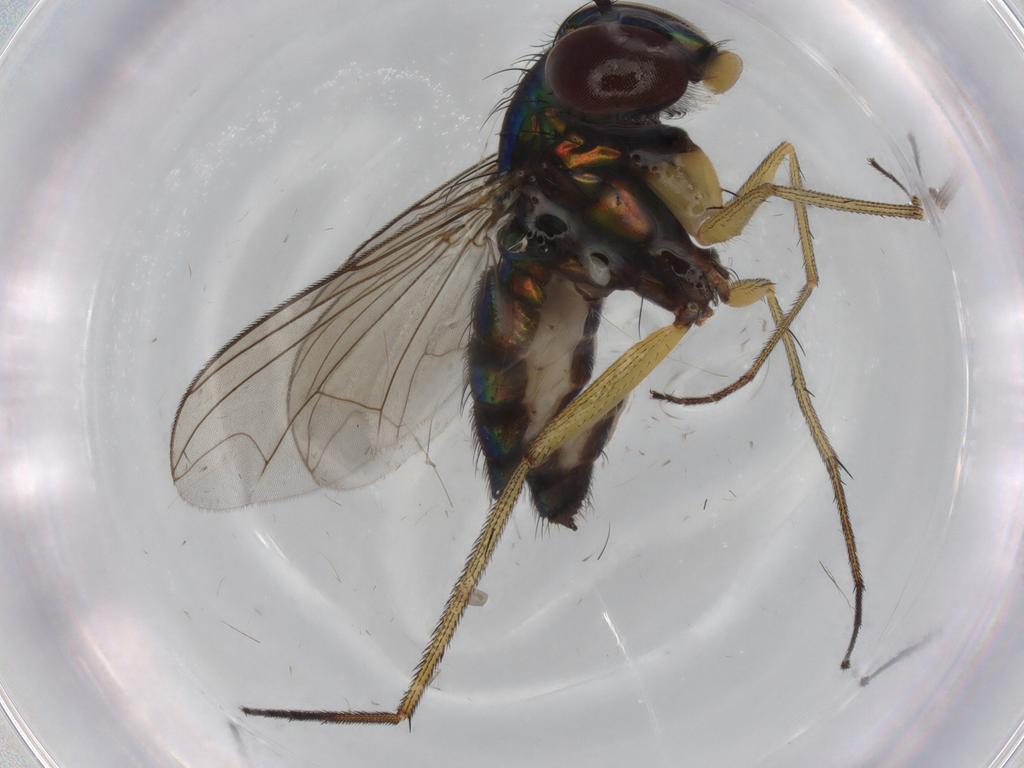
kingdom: Animalia
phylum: Arthropoda
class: Insecta
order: Diptera
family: Dolichopodidae
